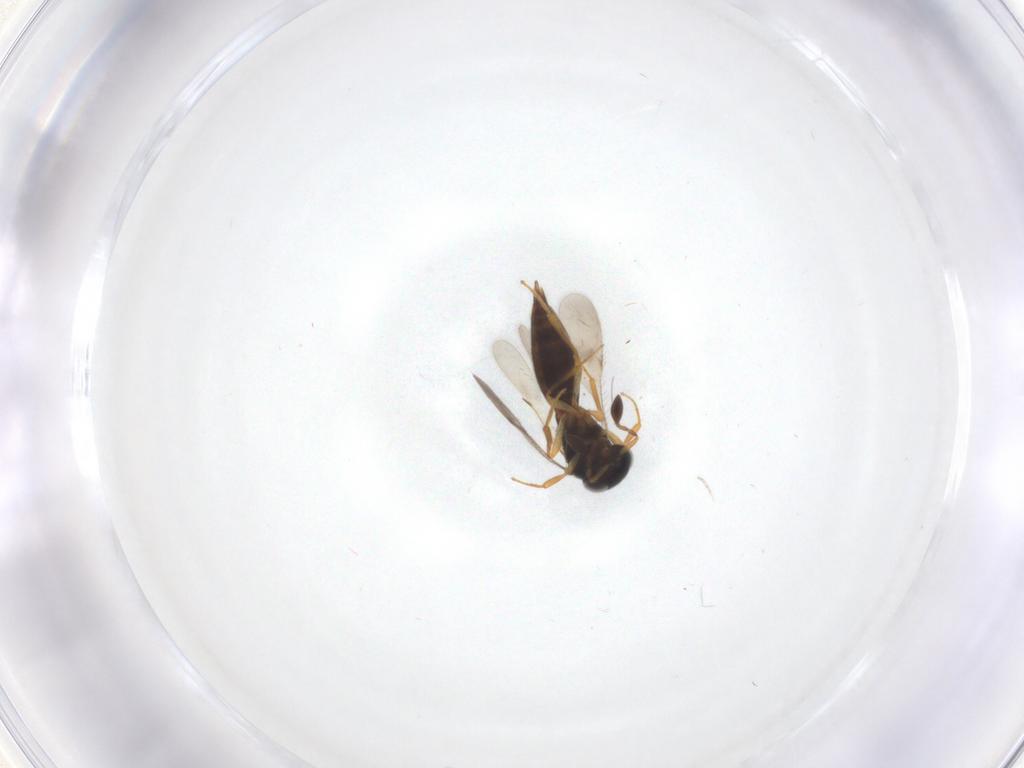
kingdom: Animalia
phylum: Arthropoda
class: Insecta
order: Hymenoptera
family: Scelionidae
